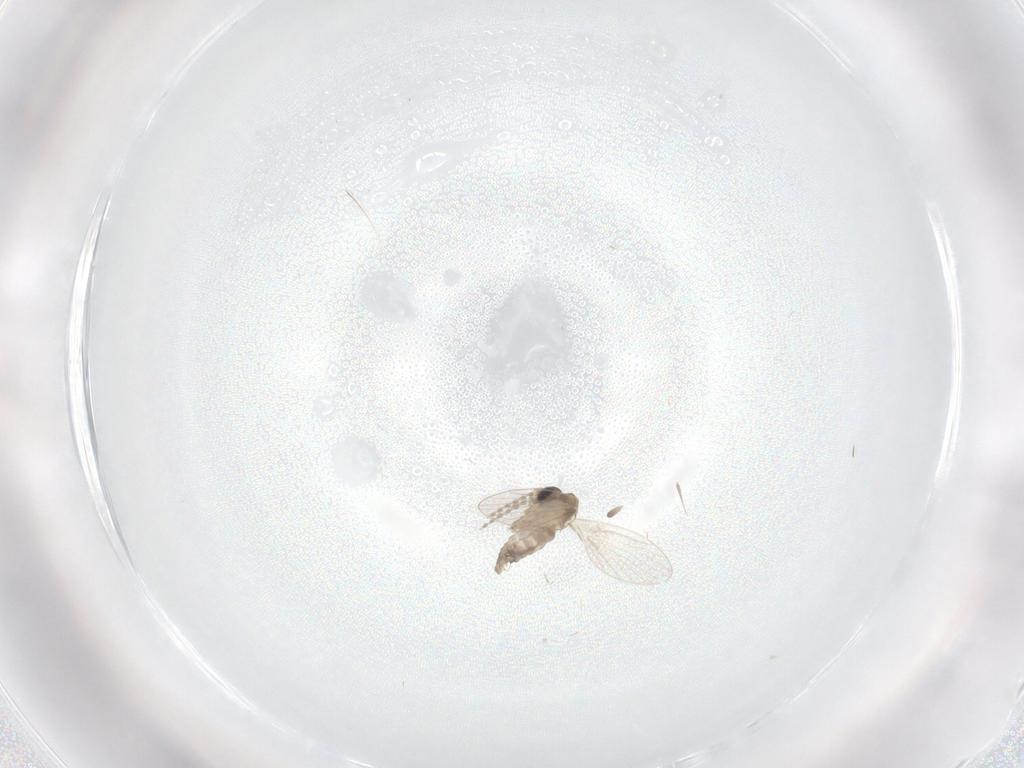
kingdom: Animalia
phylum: Arthropoda
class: Insecta
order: Diptera
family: Limoniidae
